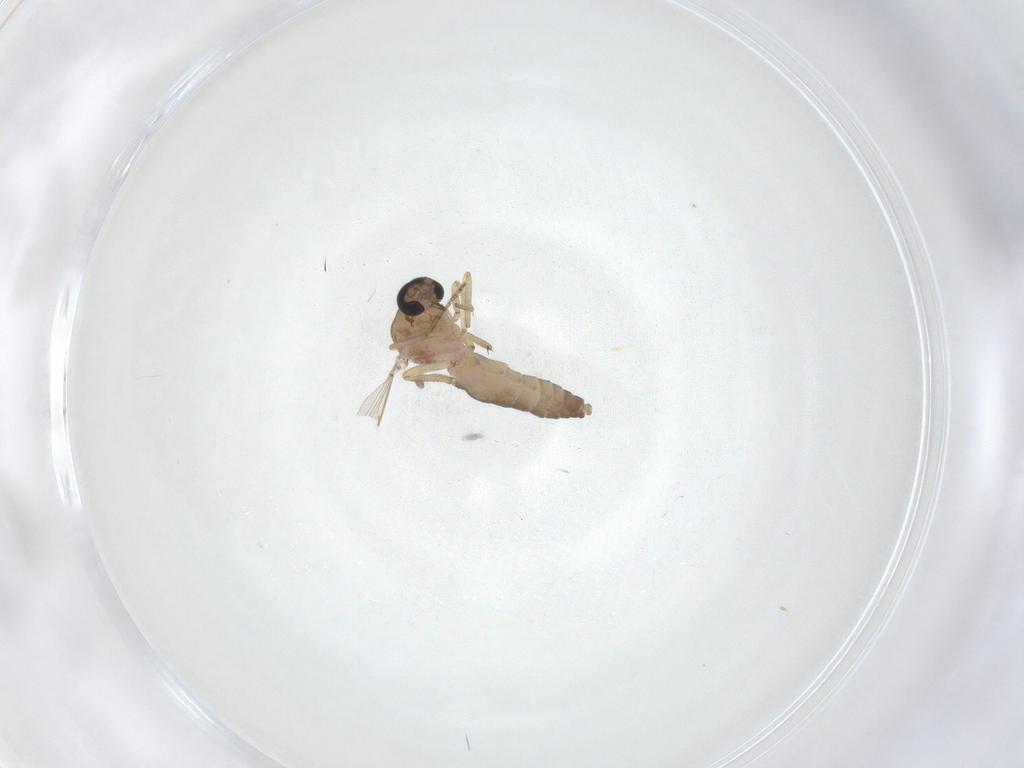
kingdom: Animalia
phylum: Arthropoda
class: Insecta
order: Diptera
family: Ceratopogonidae
